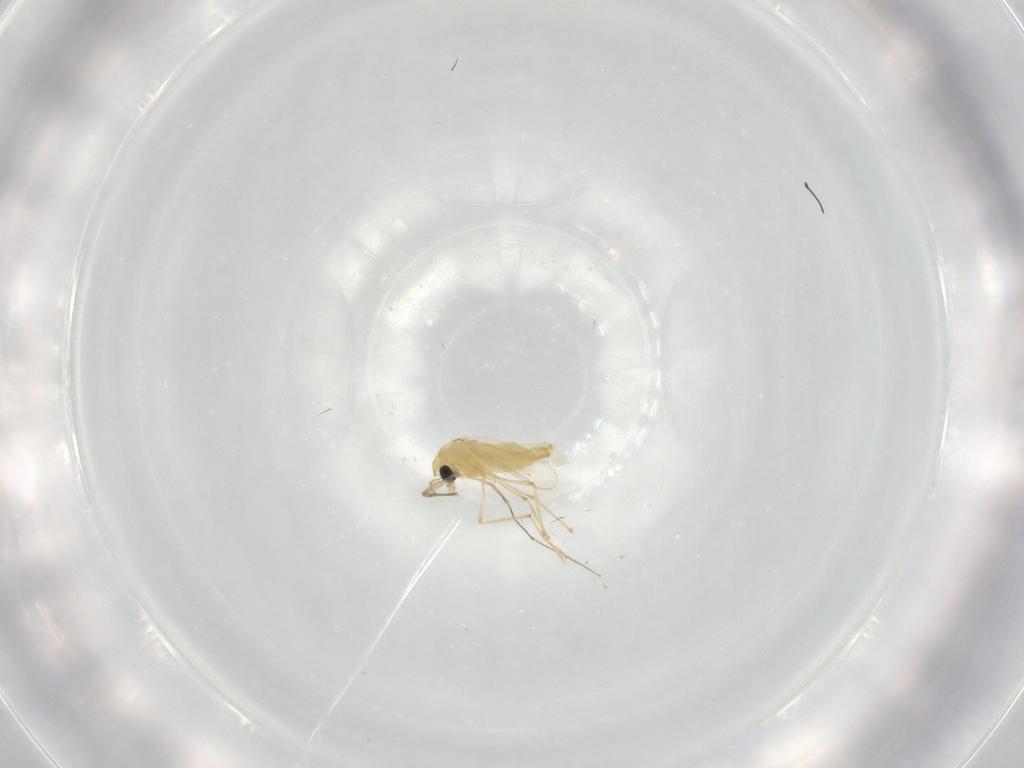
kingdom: Animalia
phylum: Arthropoda
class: Insecta
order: Diptera
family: Chironomidae
